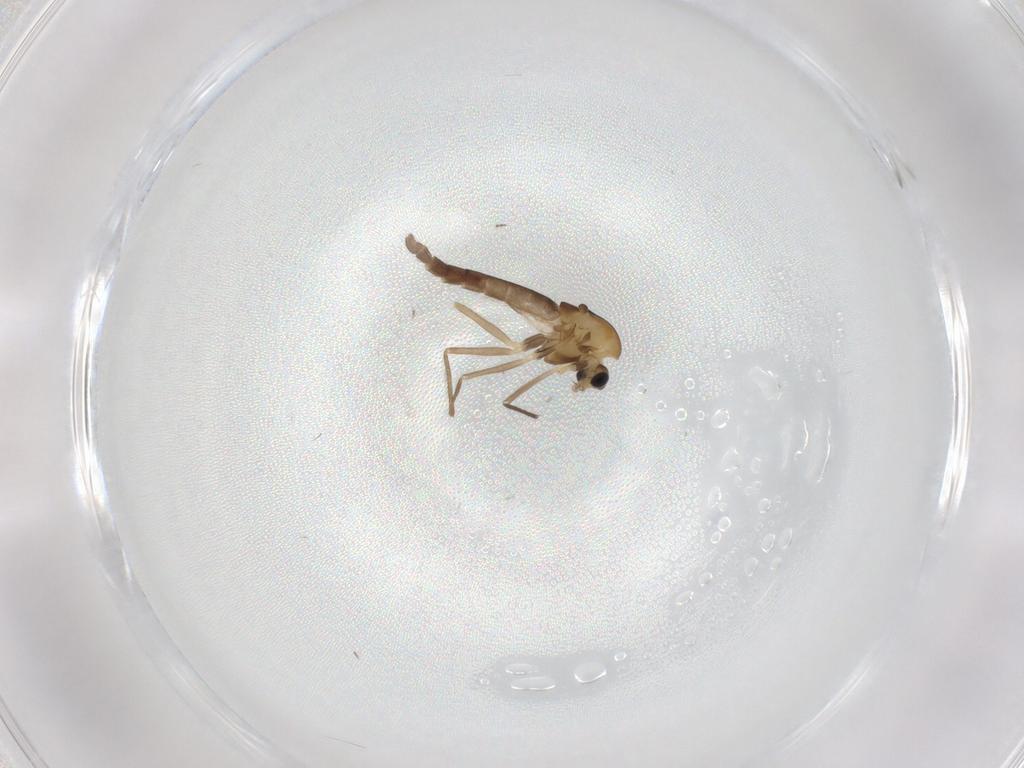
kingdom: Animalia
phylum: Arthropoda
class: Insecta
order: Diptera
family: Chironomidae
